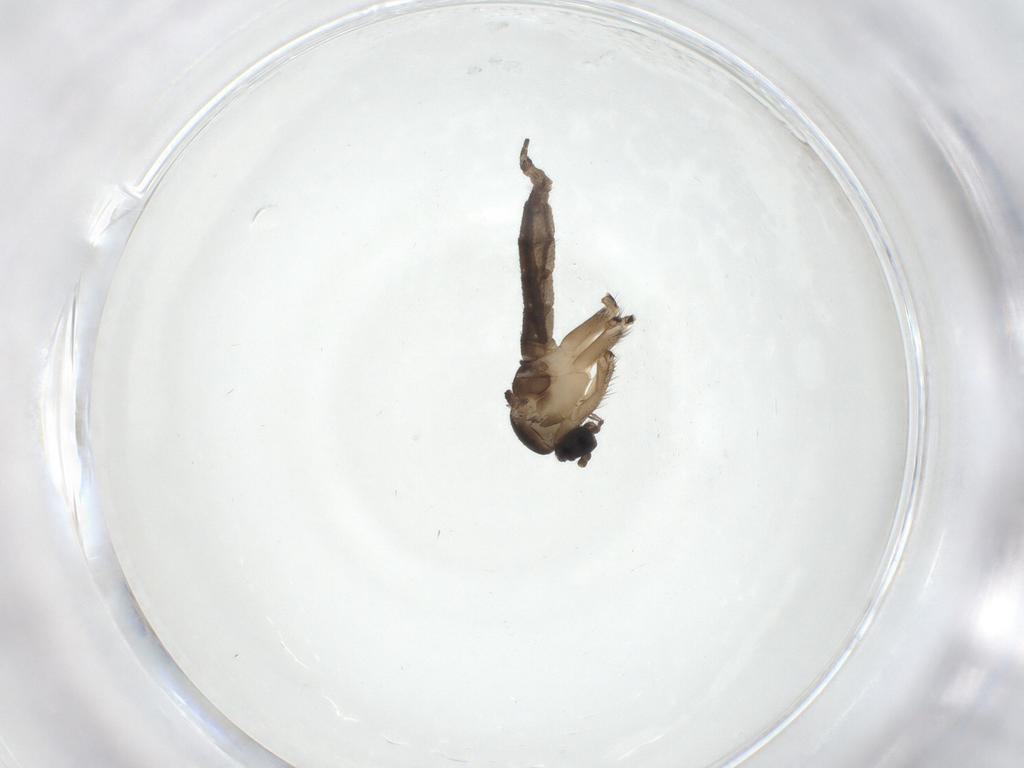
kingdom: Animalia
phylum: Arthropoda
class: Insecta
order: Diptera
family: Sciaridae
